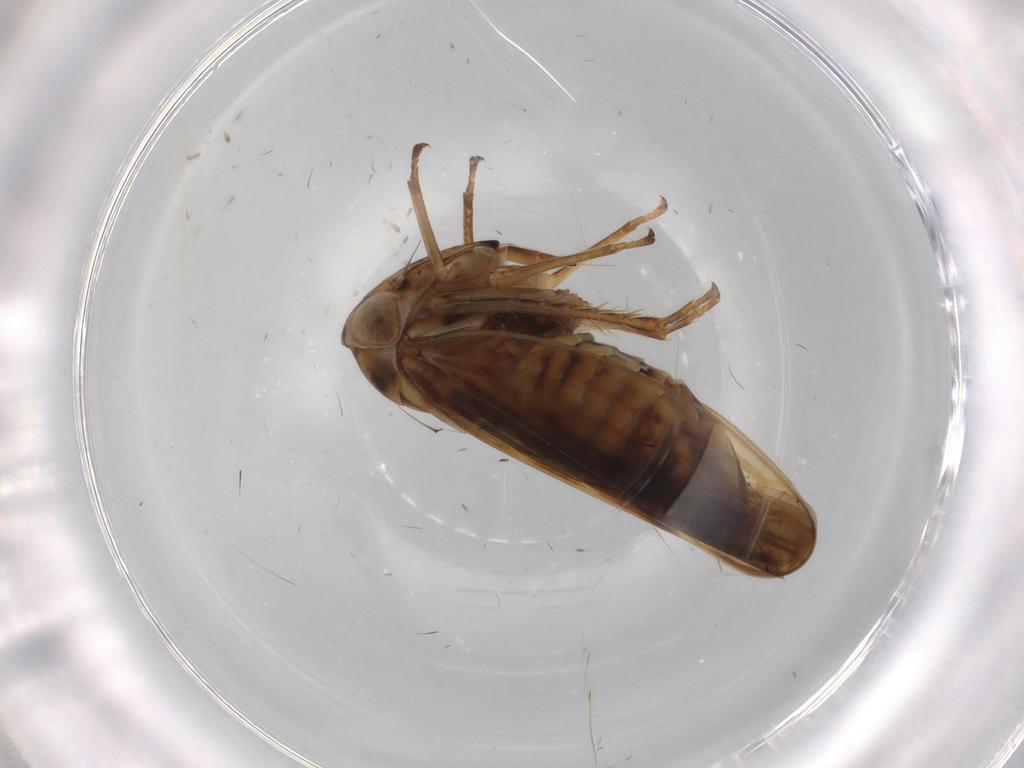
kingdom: Animalia
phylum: Arthropoda
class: Insecta
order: Hemiptera
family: Cicadellidae
